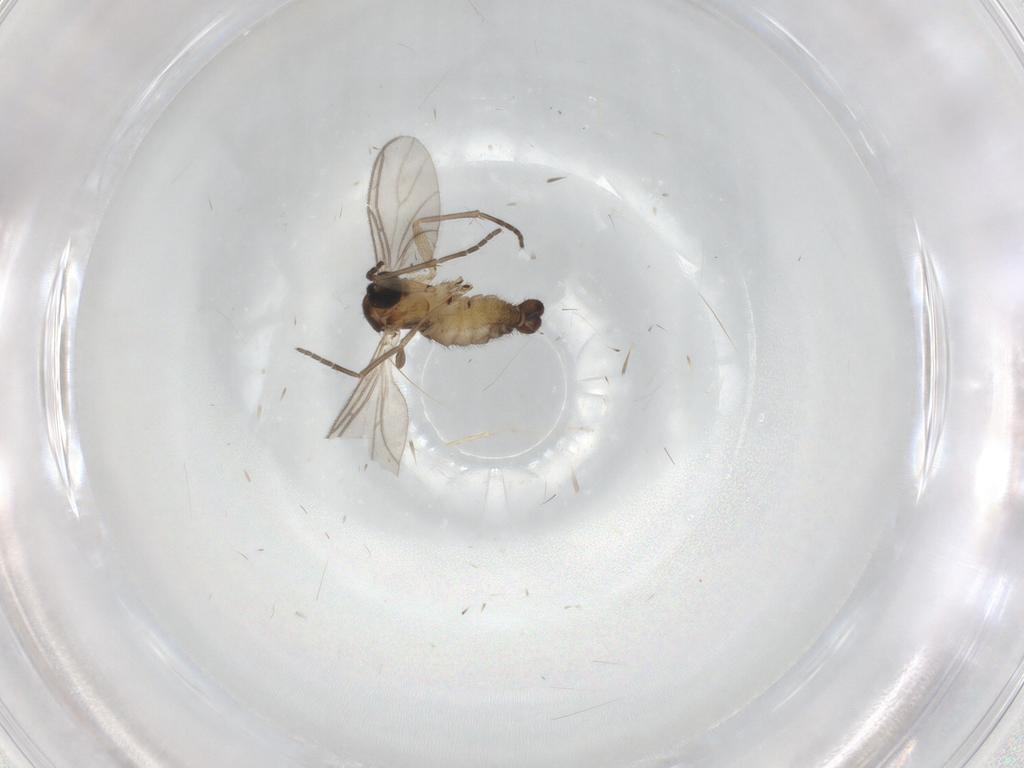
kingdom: Animalia
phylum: Arthropoda
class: Insecta
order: Diptera
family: Sciaridae
